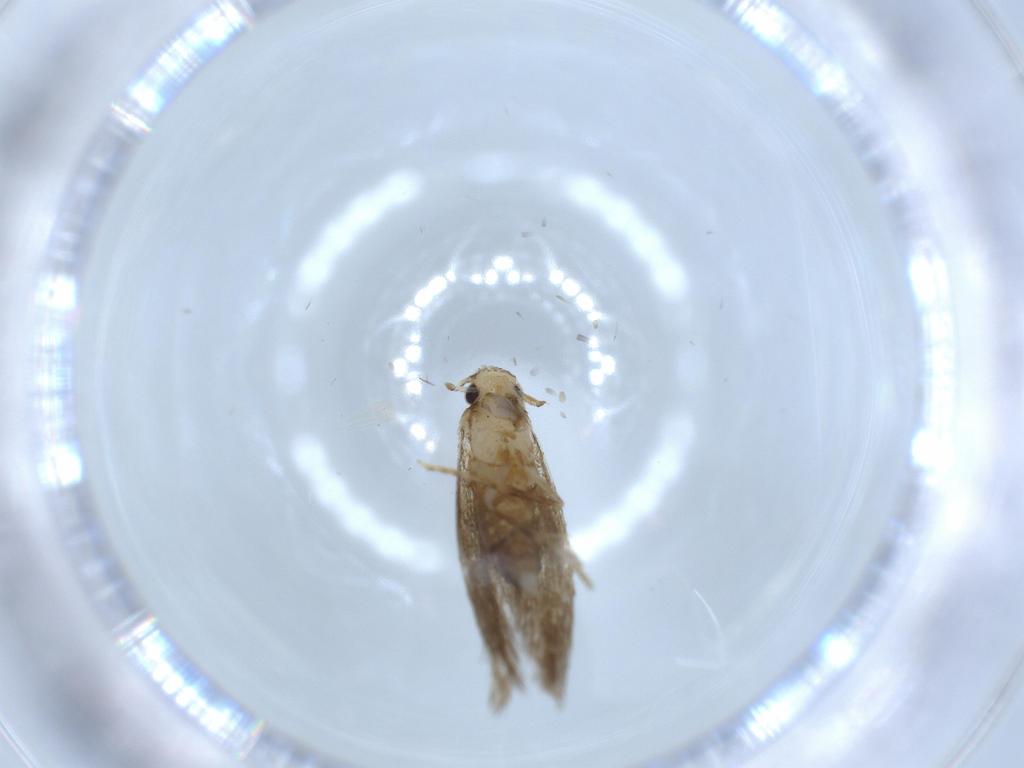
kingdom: Animalia
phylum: Arthropoda
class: Insecta
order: Lepidoptera
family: Tineidae
